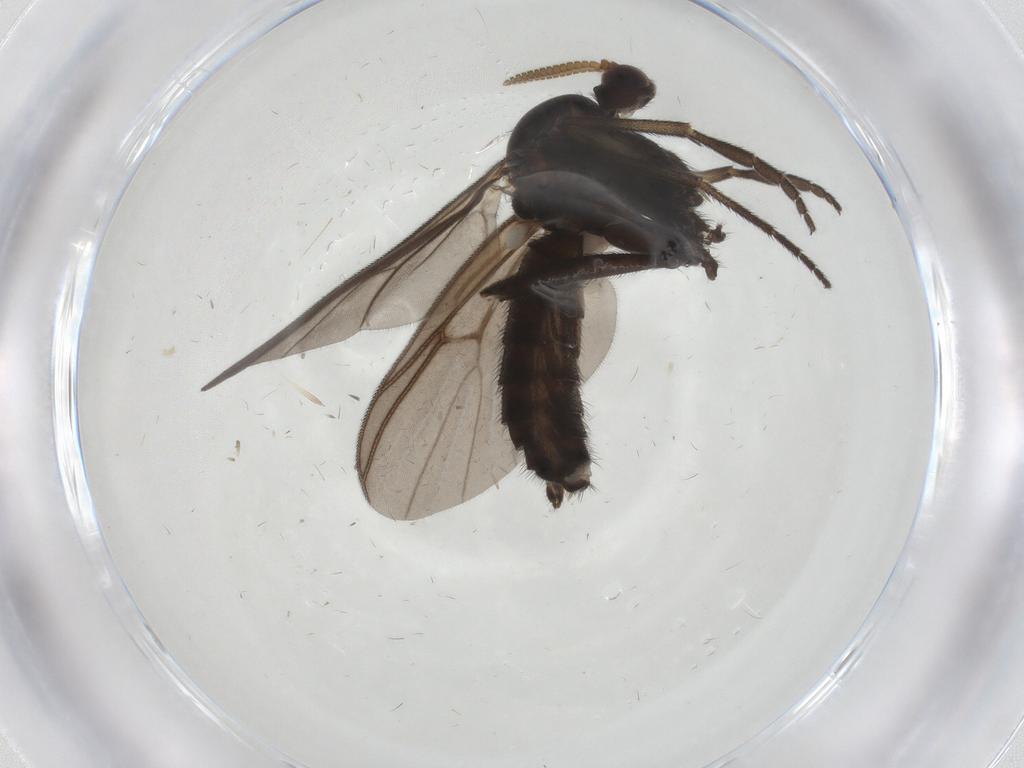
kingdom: Animalia
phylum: Arthropoda
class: Insecta
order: Diptera
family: Mycetophilidae
